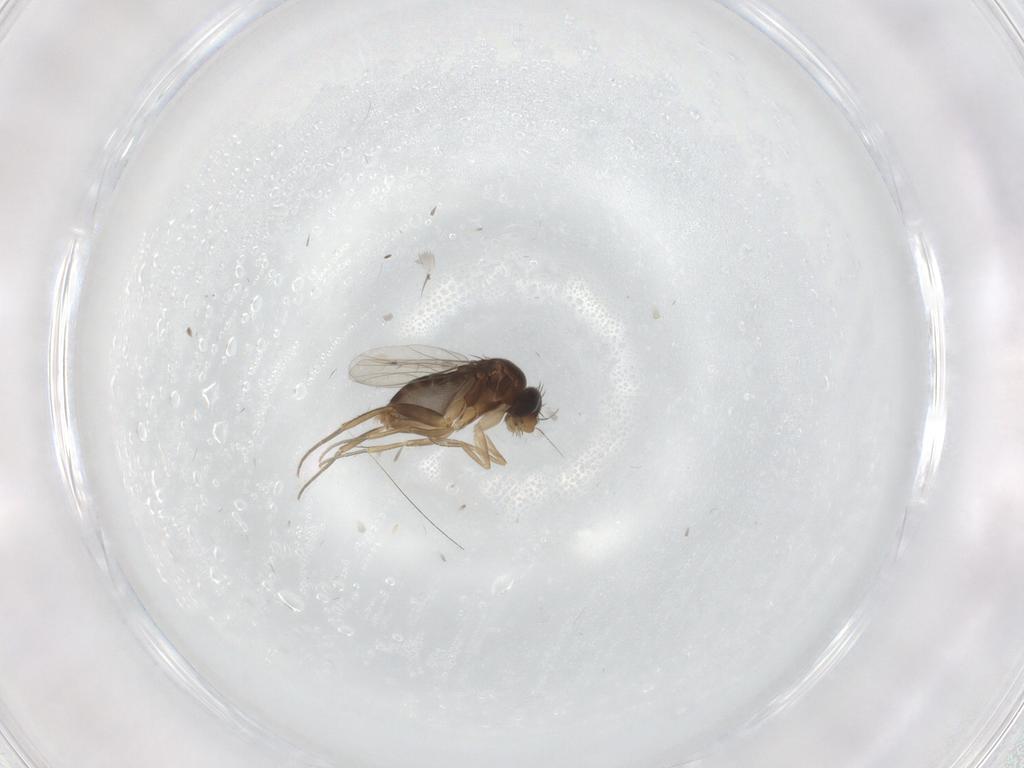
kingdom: Animalia
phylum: Arthropoda
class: Insecta
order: Diptera
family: Phoridae
